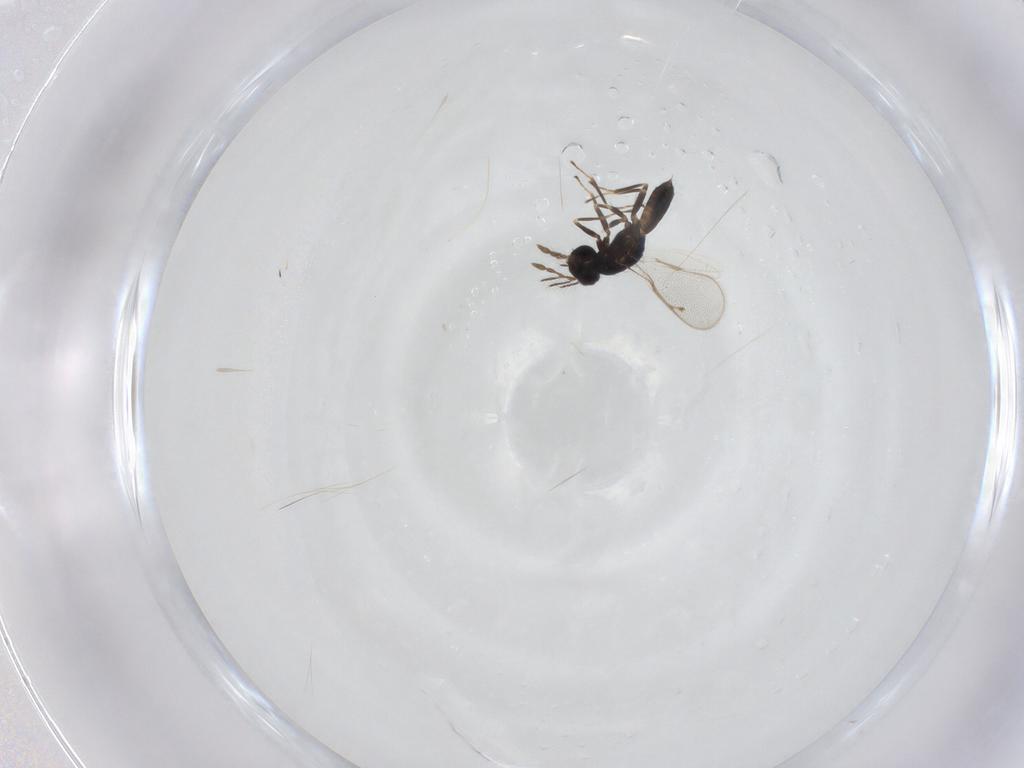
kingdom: Animalia
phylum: Arthropoda
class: Insecta
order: Hymenoptera
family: Eulophidae
